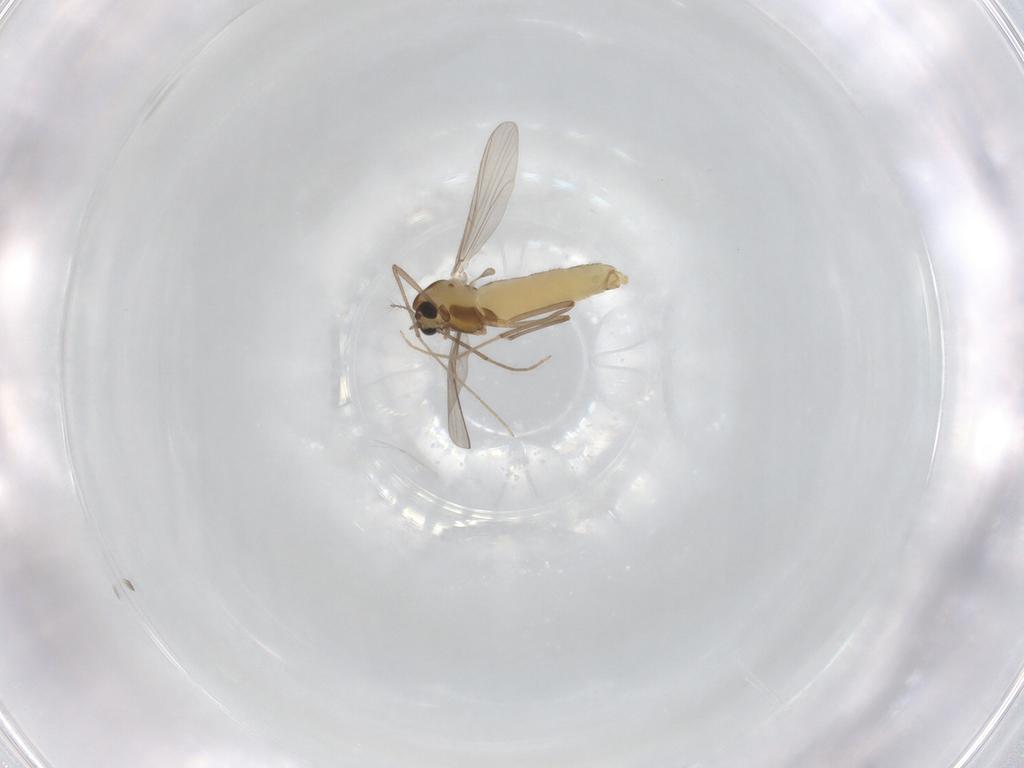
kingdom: Animalia
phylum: Arthropoda
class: Insecta
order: Diptera
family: Chironomidae
